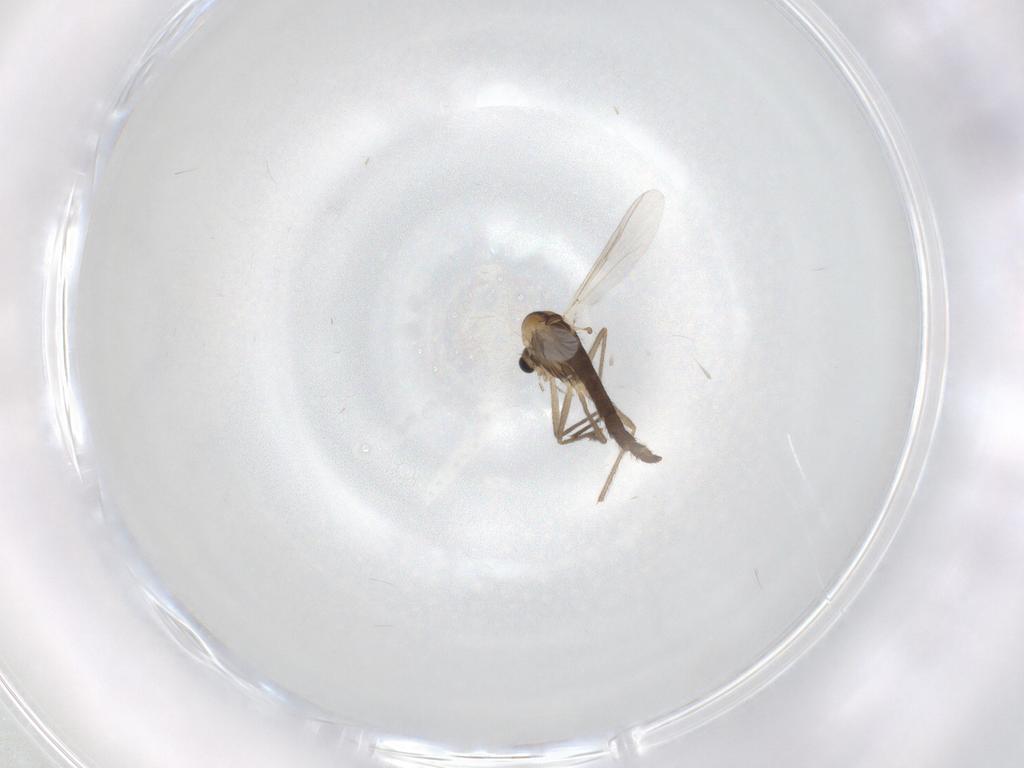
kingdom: Animalia
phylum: Arthropoda
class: Insecta
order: Diptera
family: Chironomidae
